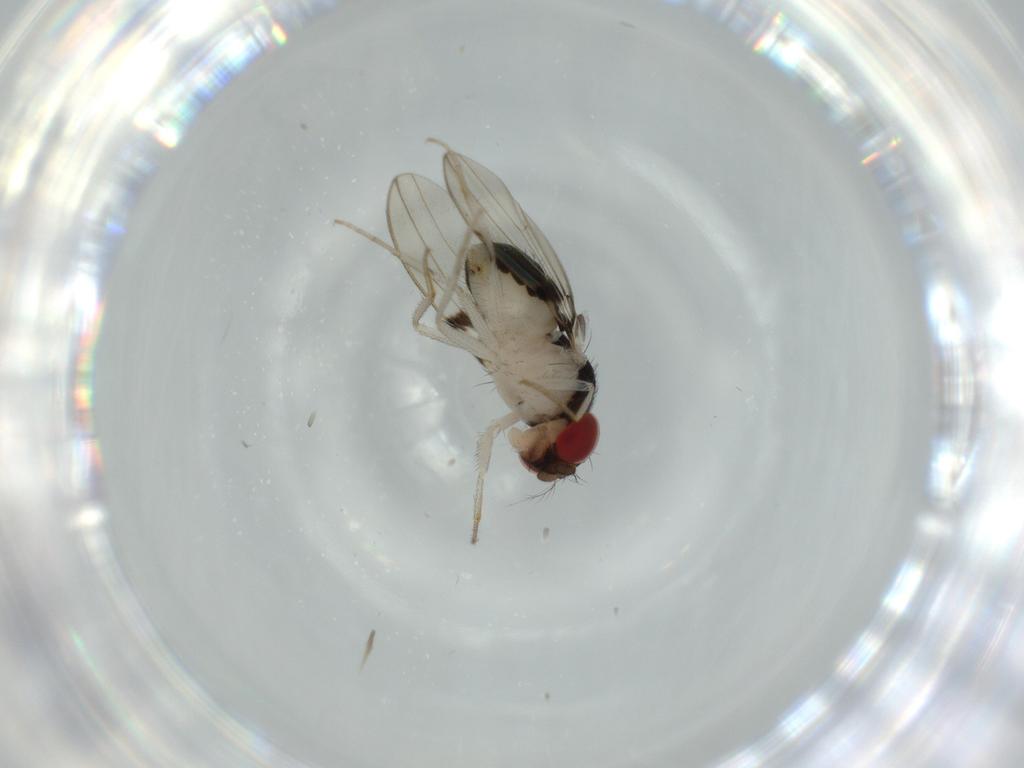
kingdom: Animalia
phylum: Arthropoda
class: Insecta
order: Diptera
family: Drosophilidae
